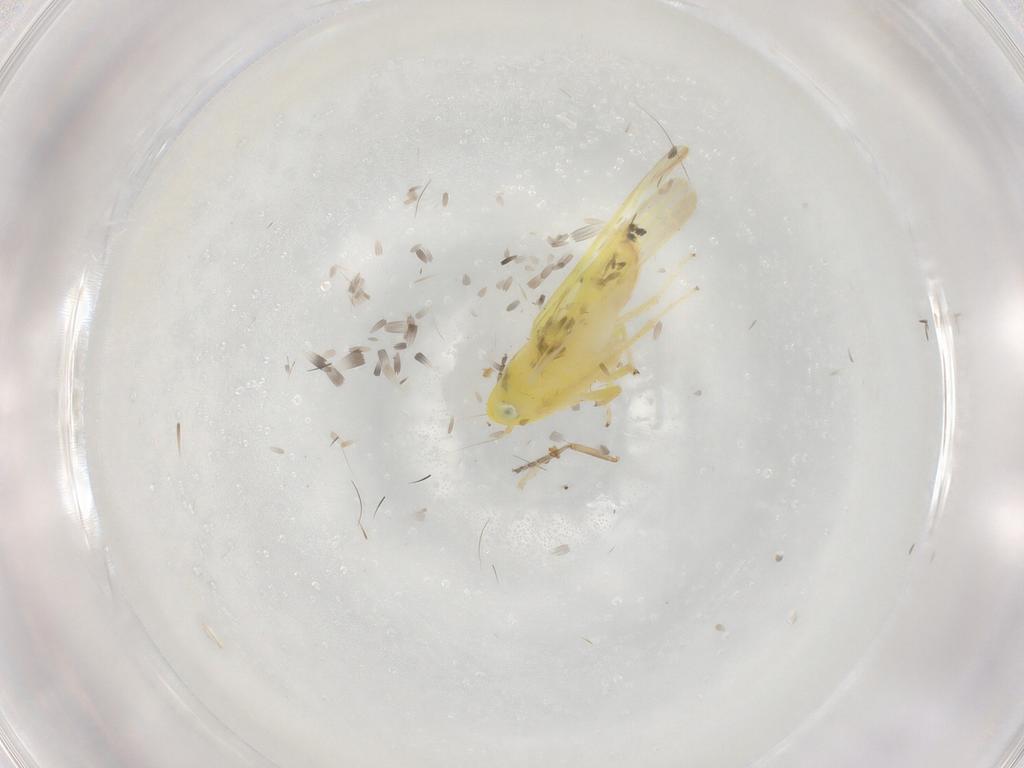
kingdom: Animalia
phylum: Arthropoda
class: Insecta
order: Hemiptera
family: Cicadellidae
